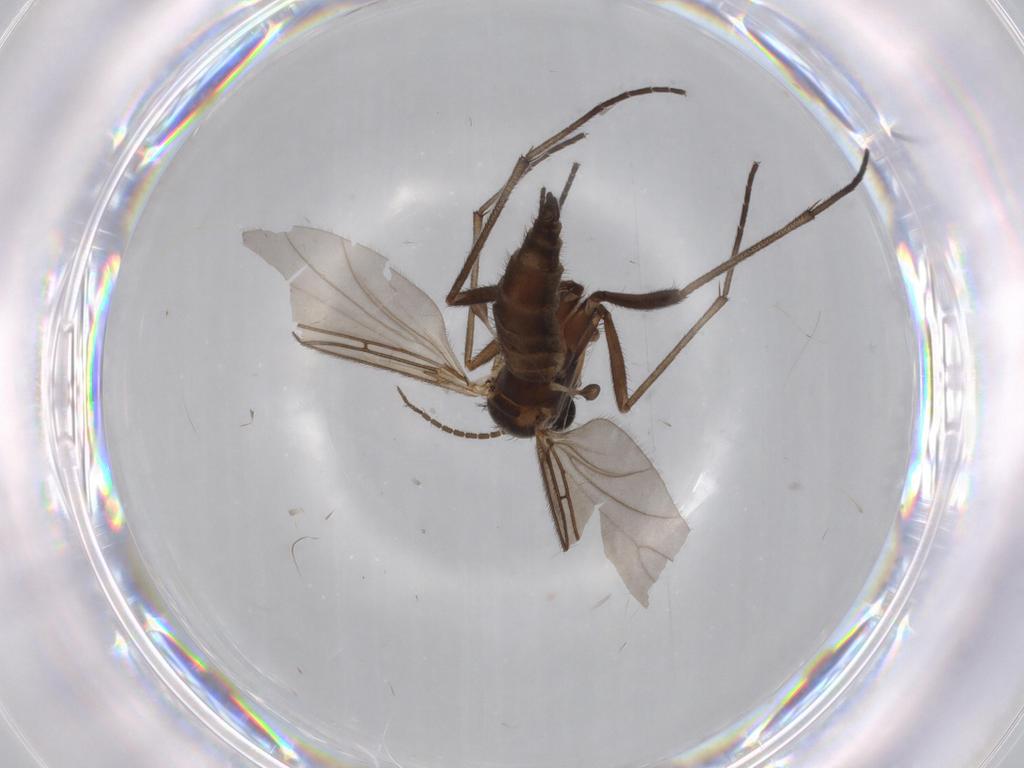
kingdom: Animalia
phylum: Arthropoda
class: Insecta
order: Diptera
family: Sciaridae
